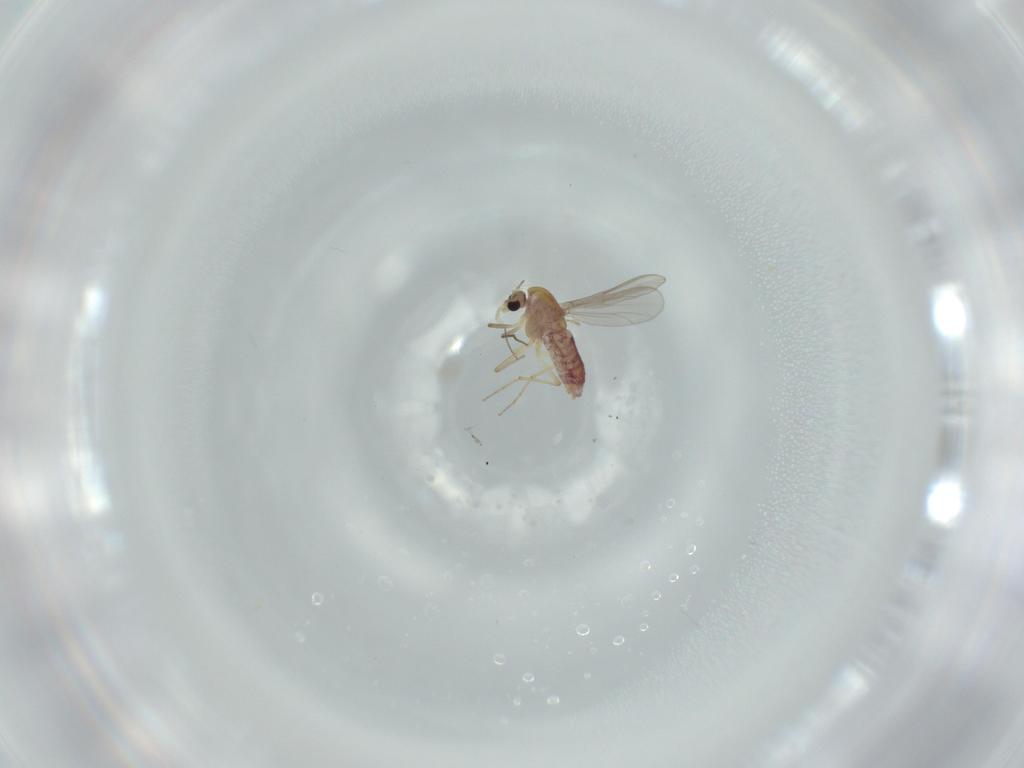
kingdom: Animalia
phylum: Arthropoda
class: Insecta
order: Diptera
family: Chironomidae
